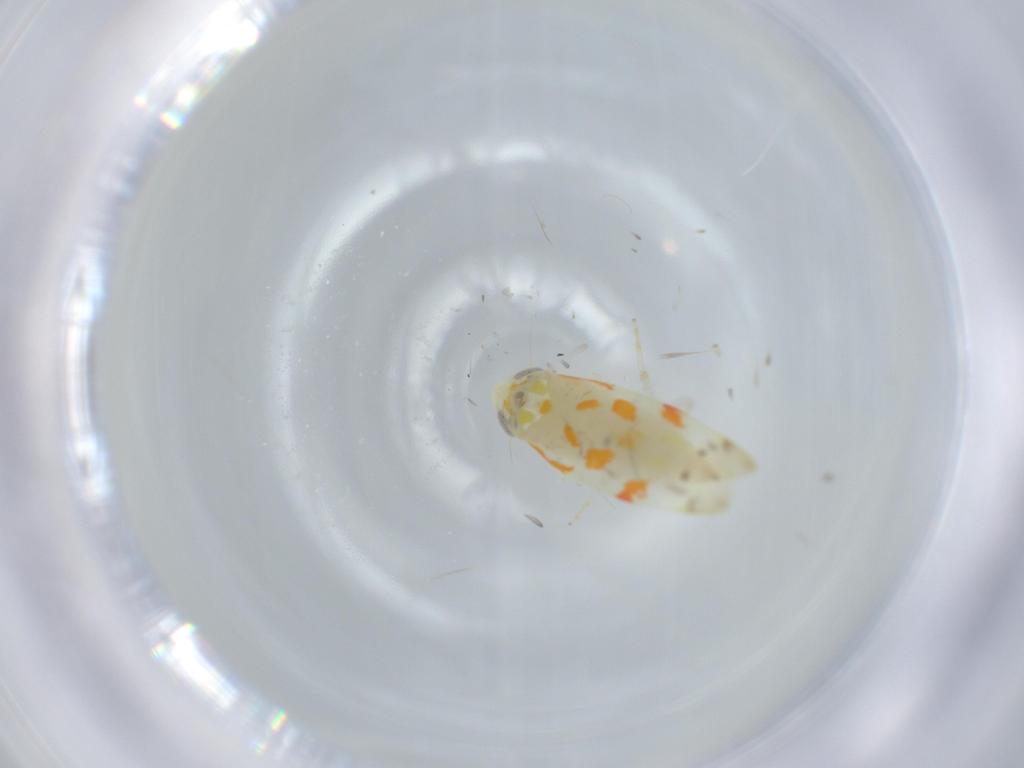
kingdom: Animalia
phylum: Arthropoda
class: Insecta
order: Hemiptera
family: Cicadellidae
